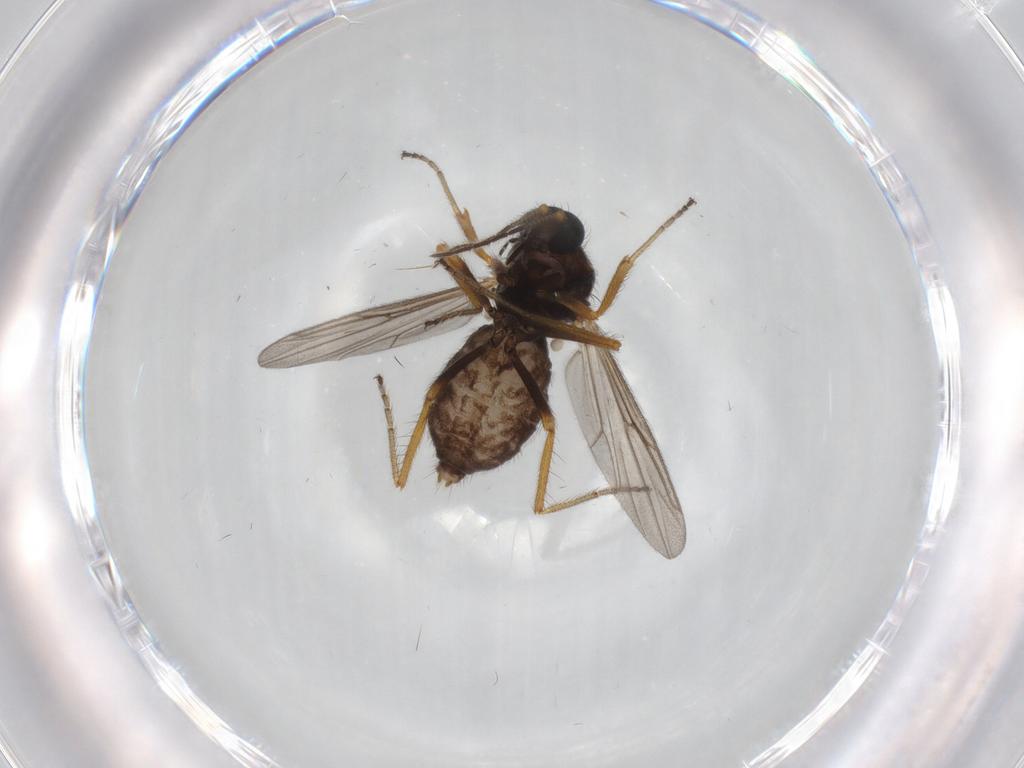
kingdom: Animalia
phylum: Arthropoda
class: Insecta
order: Diptera
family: Ceratopogonidae
